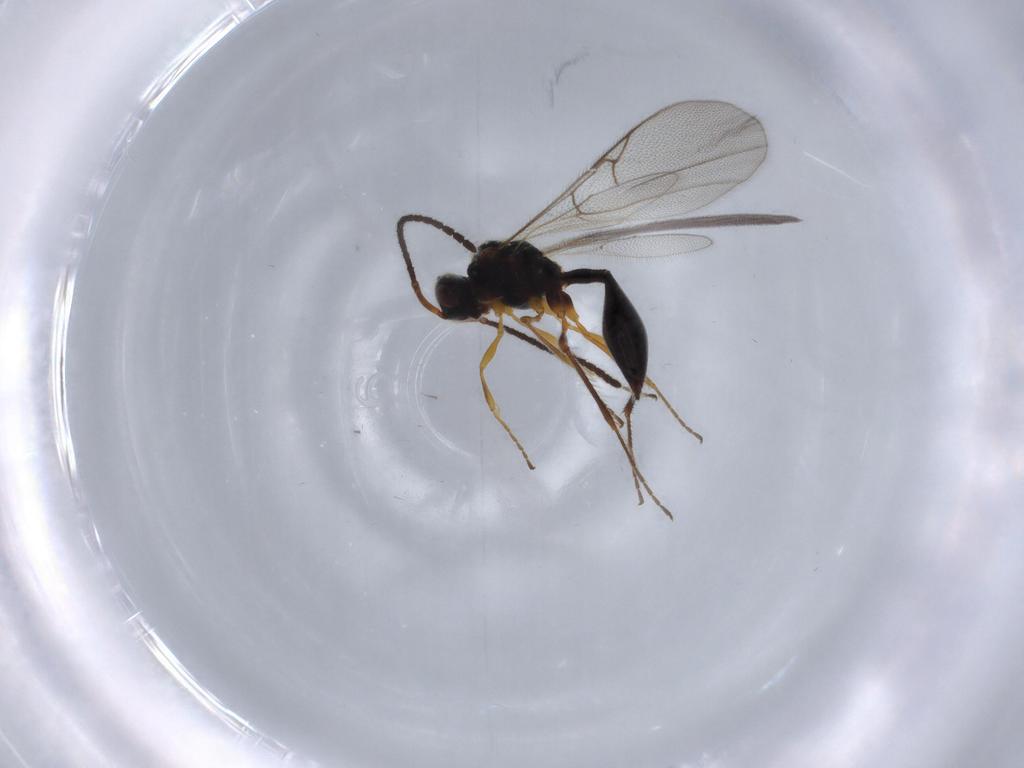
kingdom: Animalia
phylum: Arthropoda
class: Insecta
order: Hymenoptera
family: Diapriidae
